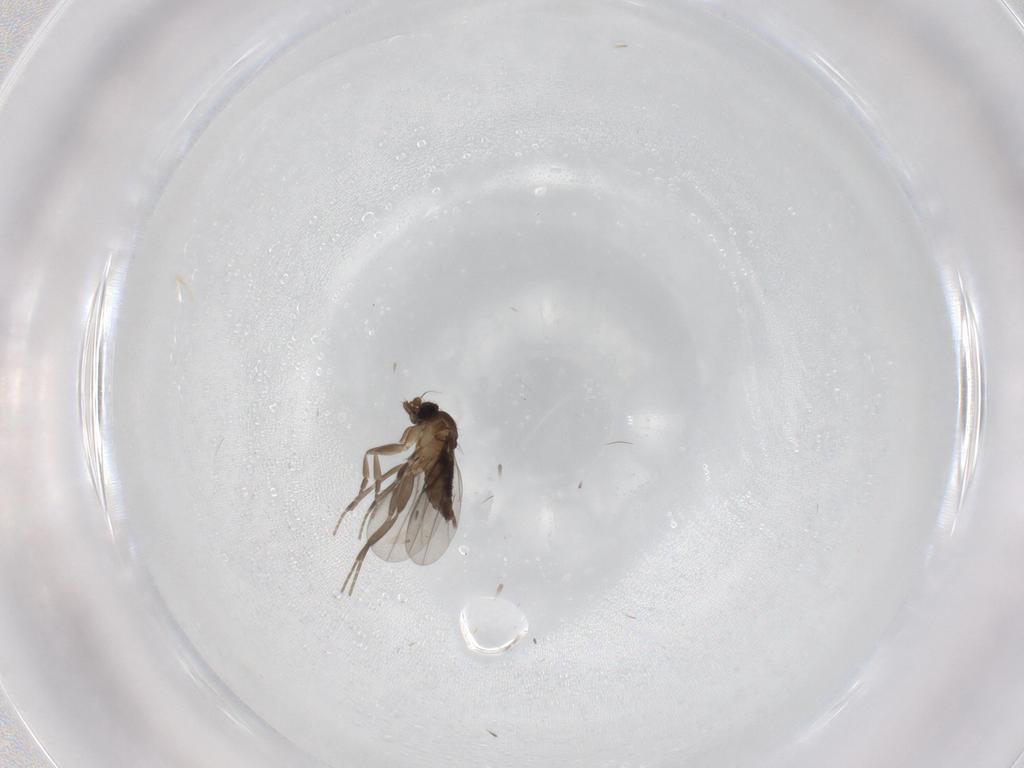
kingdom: Animalia
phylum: Arthropoda
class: Insecta
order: Diptera
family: Phoridae
